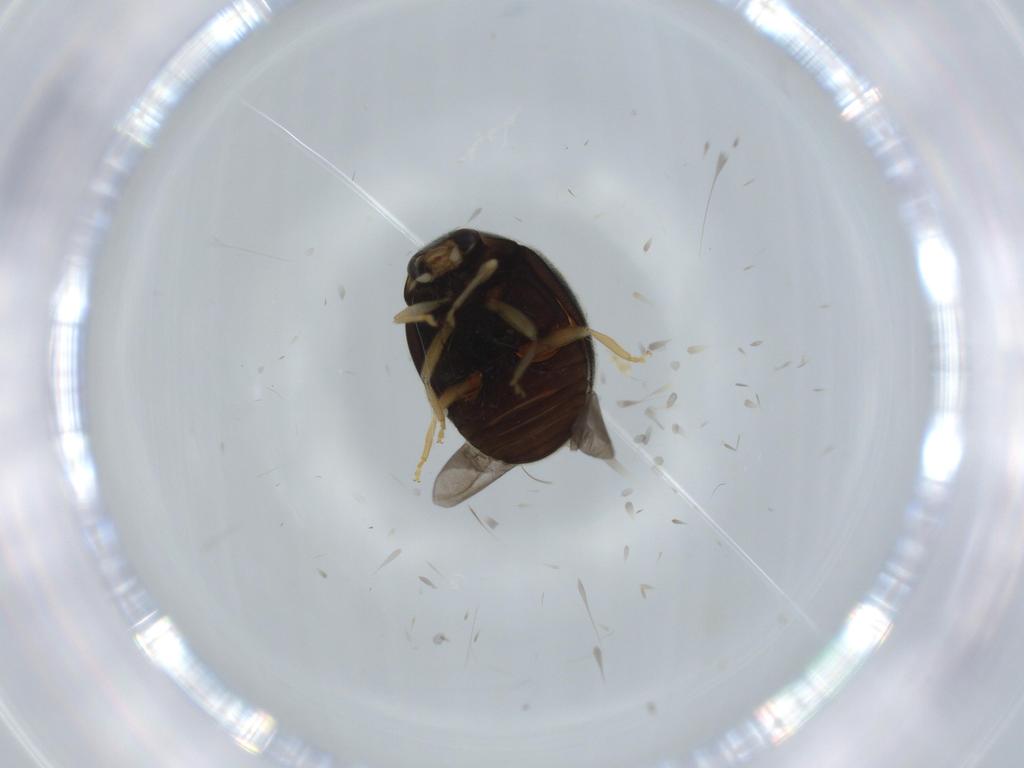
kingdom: Animalia
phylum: Arthropoda
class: Insecta
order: Coleoptera
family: Coccinellidae
